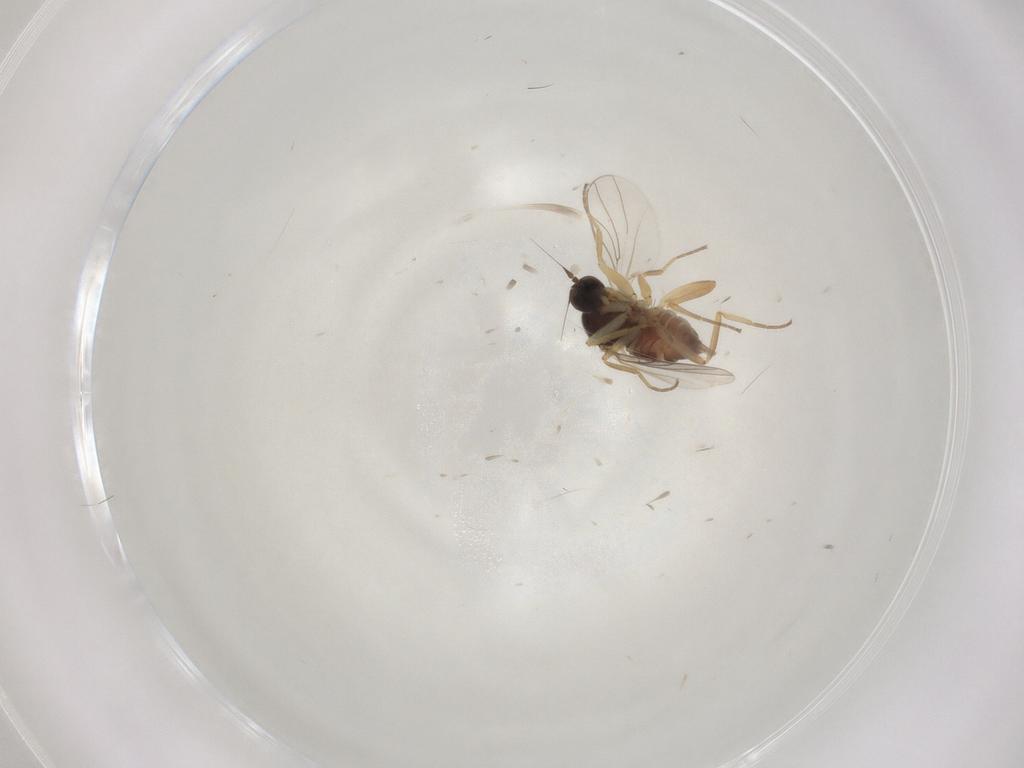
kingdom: Animalia
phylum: Arthropoda
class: Insecta
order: Diptera
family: Hybotidae
